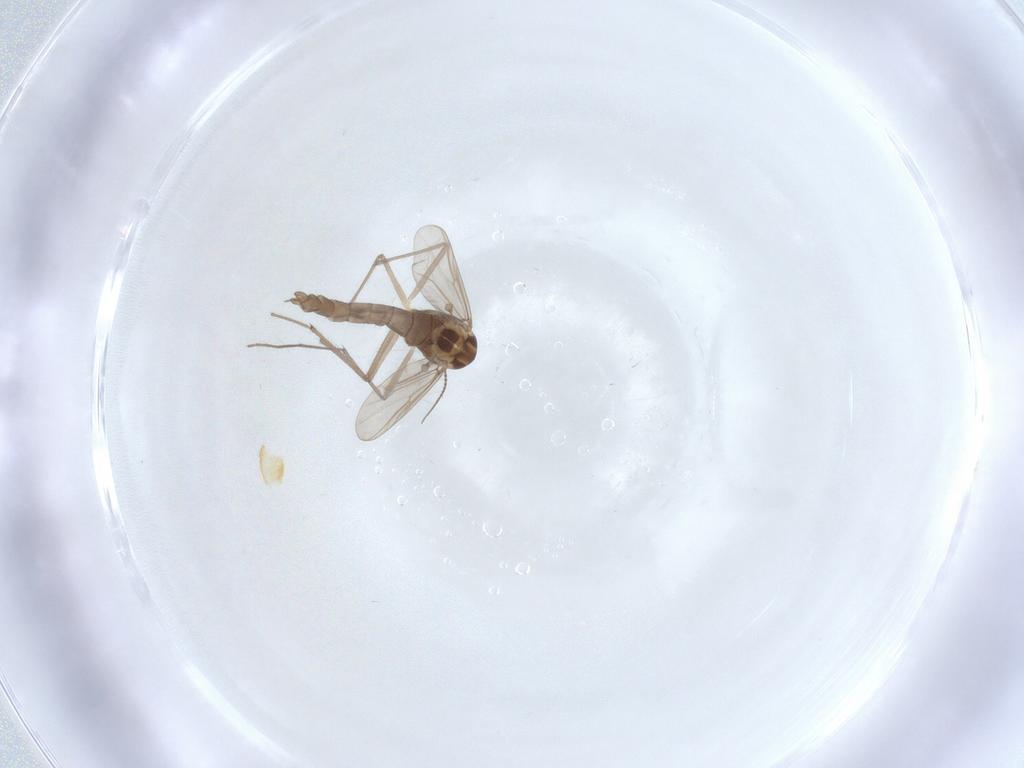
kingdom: Animalia
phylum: Arthropoda
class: Insecta
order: Diptera
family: Chironomidae
